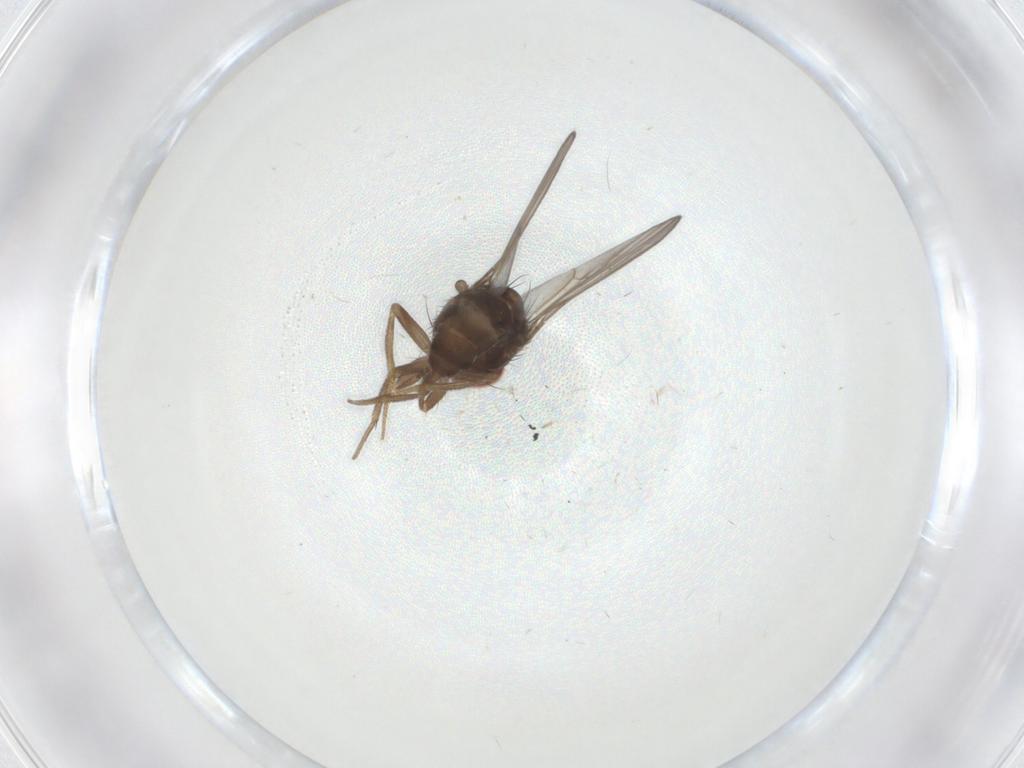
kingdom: Animalia
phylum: Arthropoda
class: Insecta
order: Diptera
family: Drosophilidae
